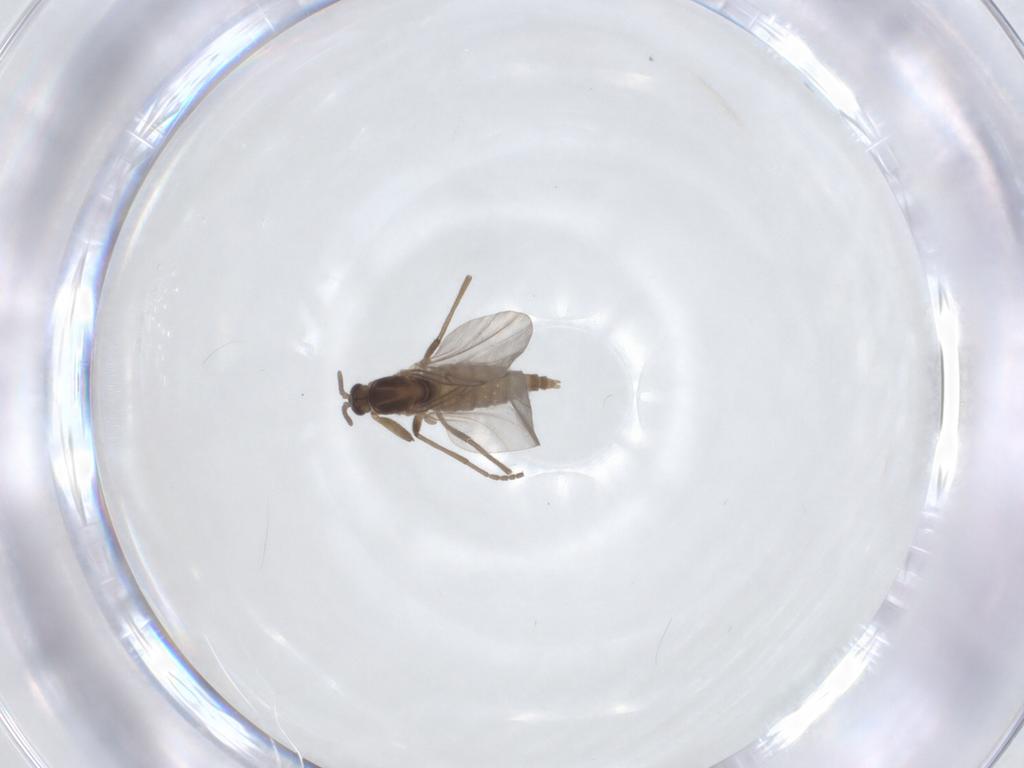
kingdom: Animalia
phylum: Arthropoda
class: Insecta
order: Diptera
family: Cecidomyiidae
